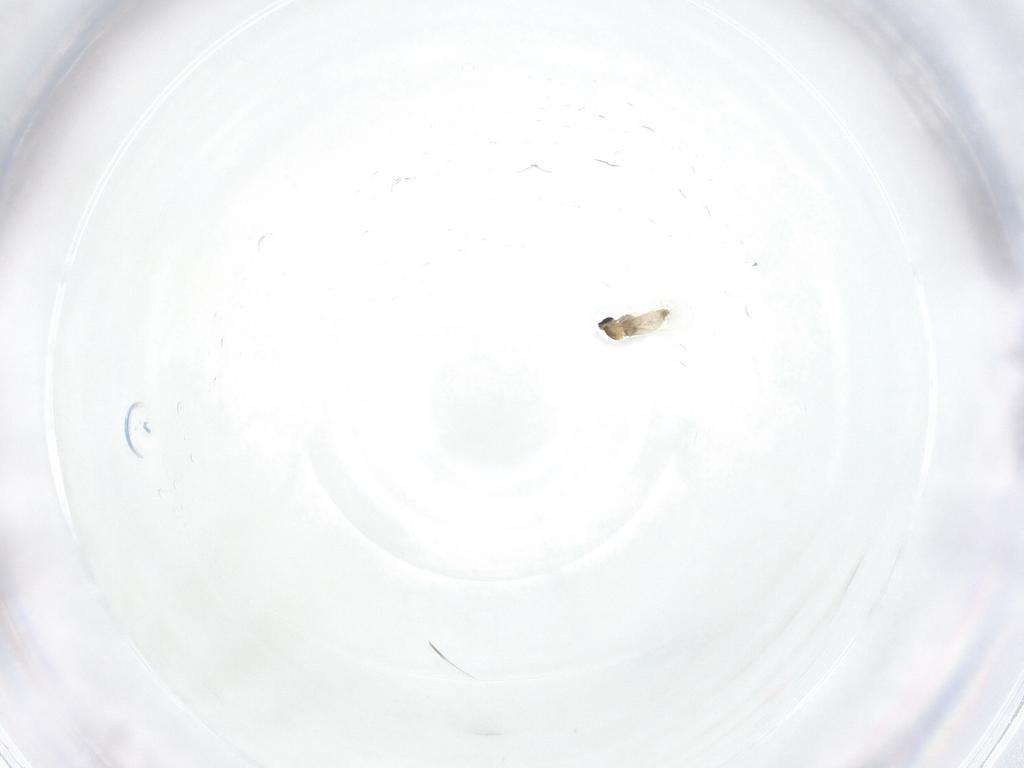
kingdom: Animalia
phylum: Arthropoda
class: Insecta
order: Diptera
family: Cecidomyiidae
